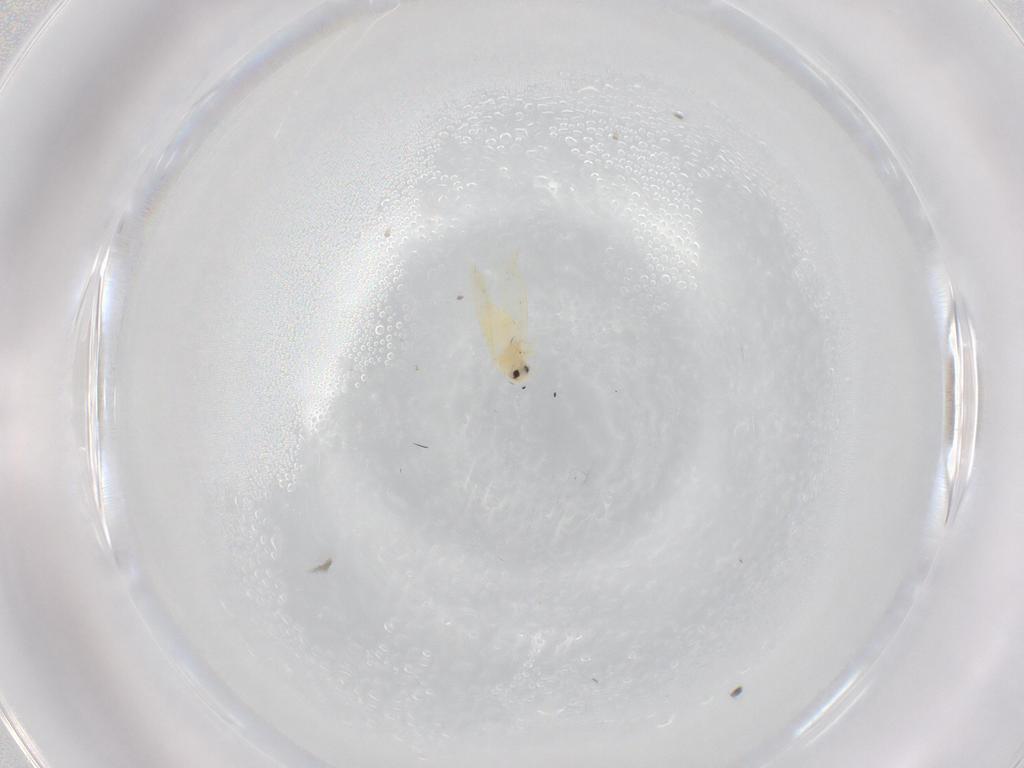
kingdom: Animalia
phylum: Arthropoda
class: Insecta
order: Hemiptera
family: Aleyrodidae
